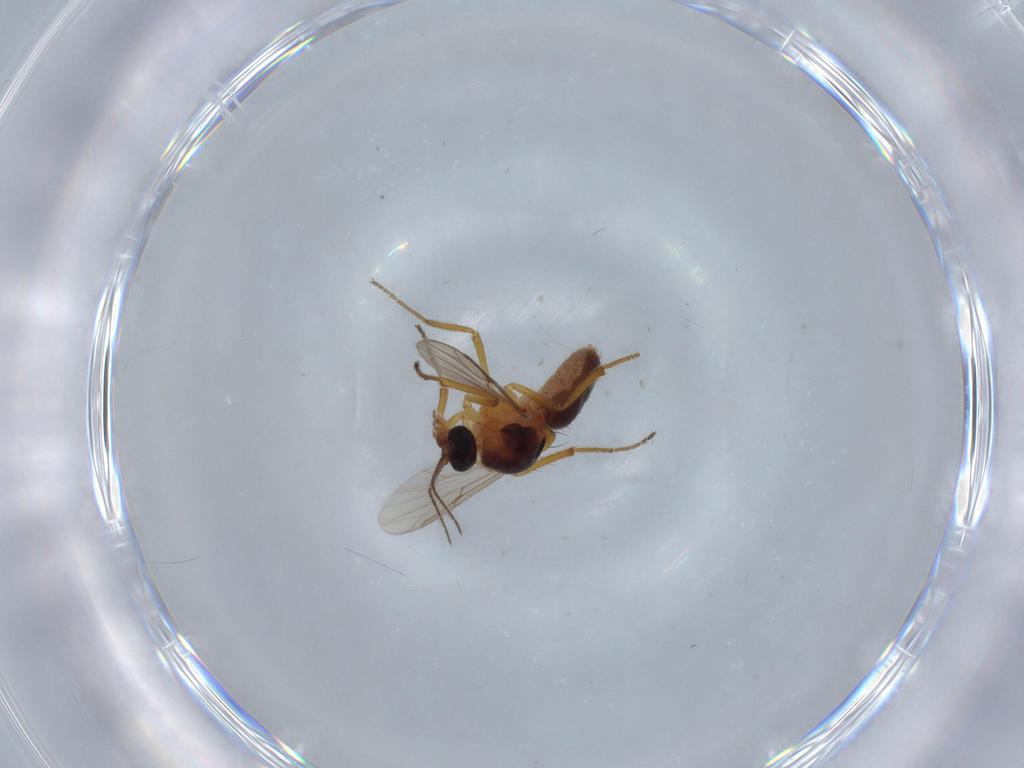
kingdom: Animalia
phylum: Arthropoda
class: Insecta
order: Diptera
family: Ceratopogonidae
